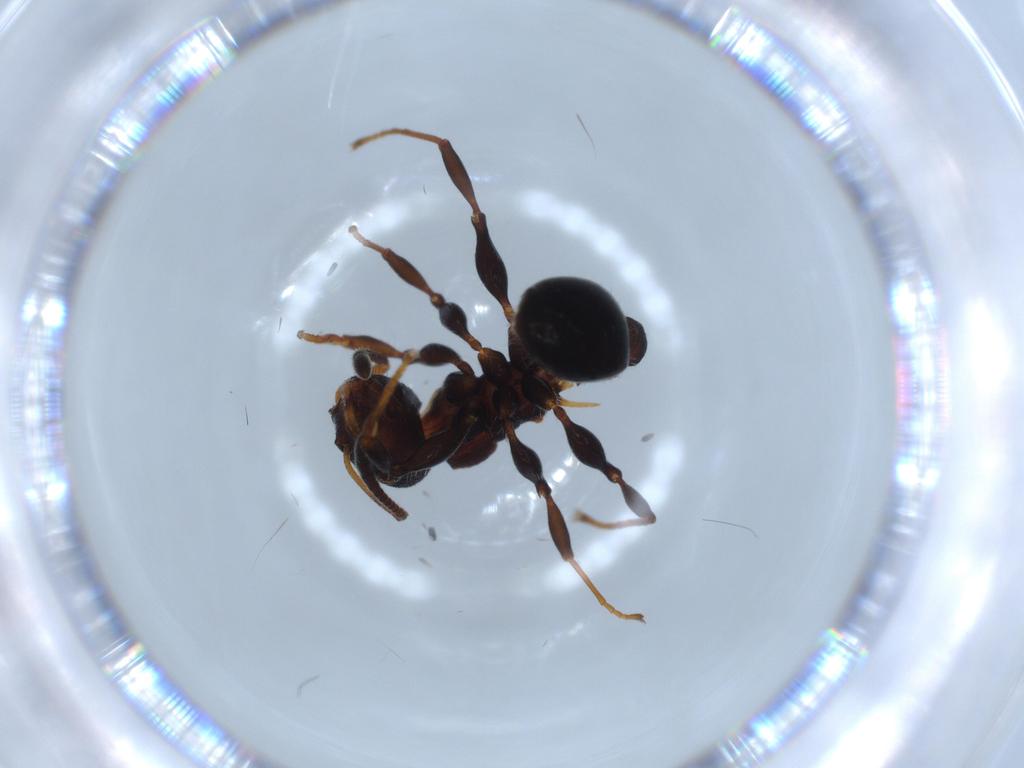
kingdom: Animalia
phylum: Arthropoda
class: Insecta
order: Hymenoptera
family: Formicidae
